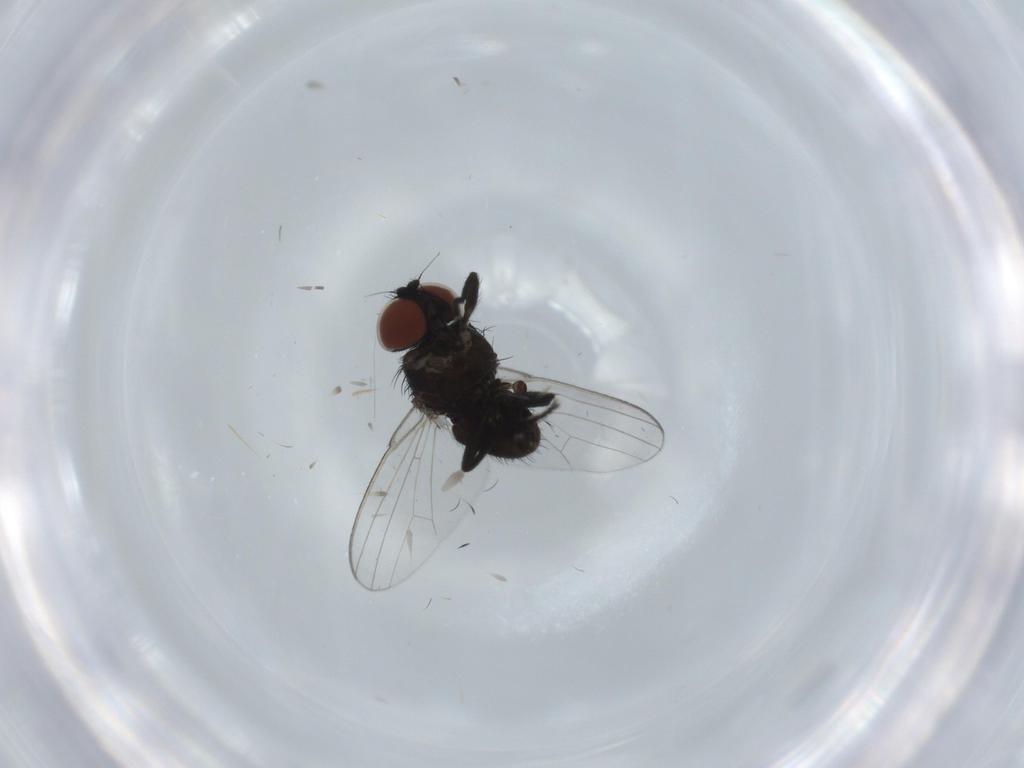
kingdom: Animalia
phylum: Arthropoda
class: Insecta
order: Diptera
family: Milichiidae
